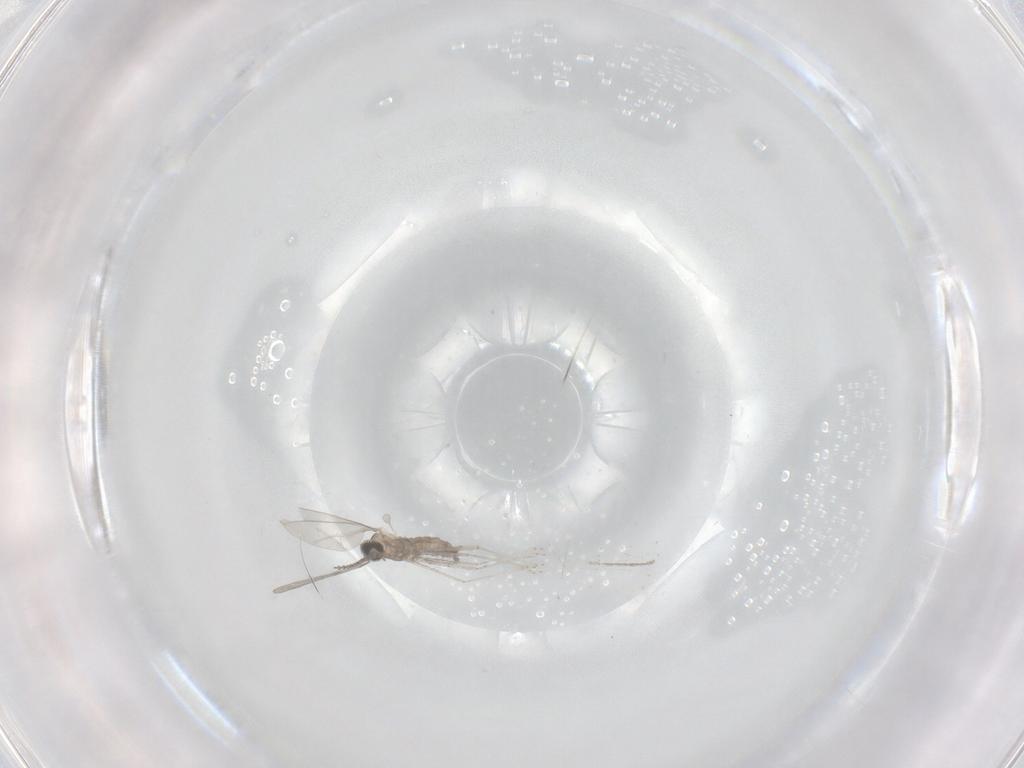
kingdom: Animalia
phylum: Arthropoda
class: Insecta
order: Diptera
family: Cecidomyiidae
